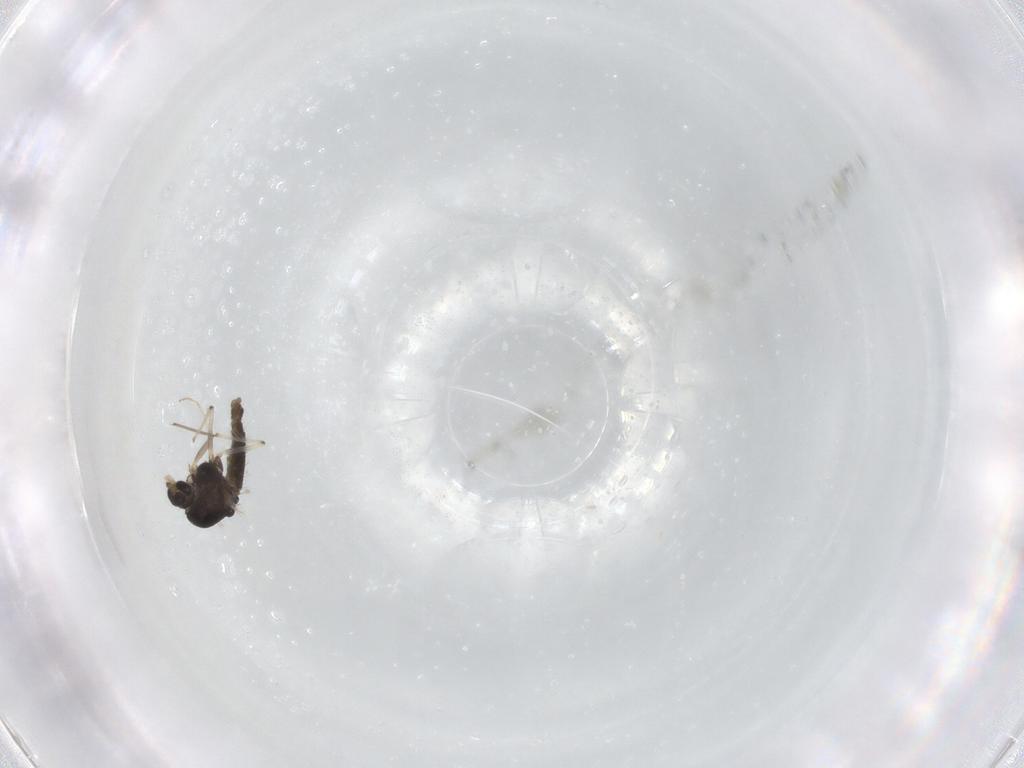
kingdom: Animalia
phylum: Arthropoda
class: Insecta
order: Diptera
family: Chironomidae
